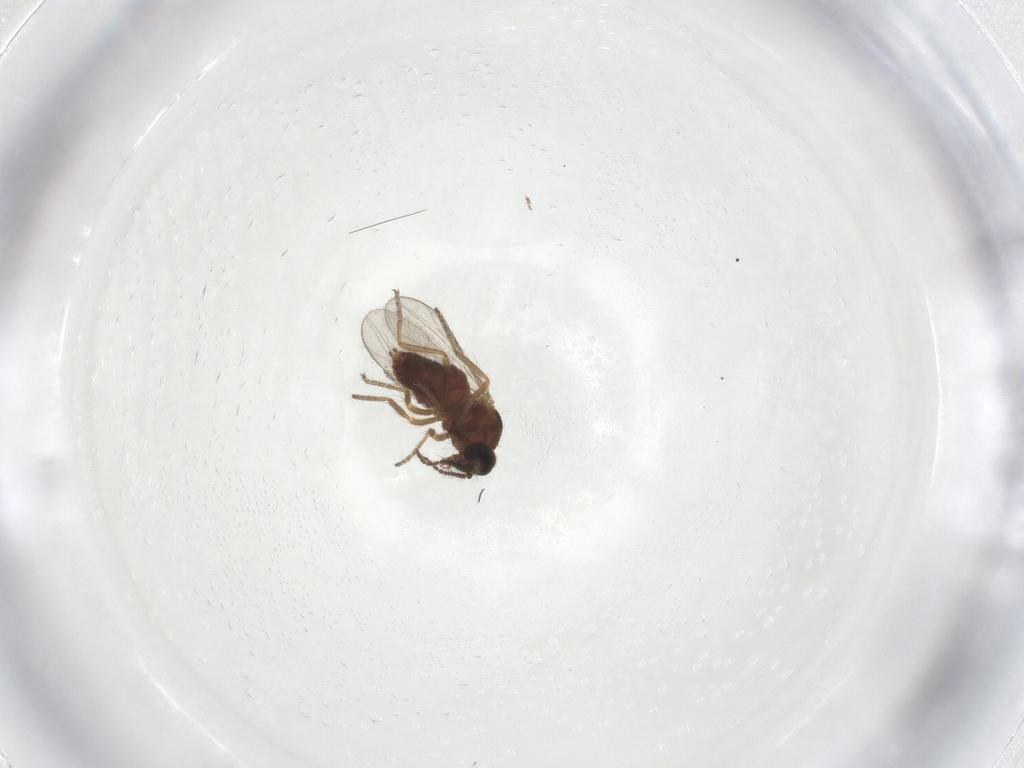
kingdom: Animalia
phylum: Arthropoda
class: Insecta
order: Diptera
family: Ceratopogonidae
